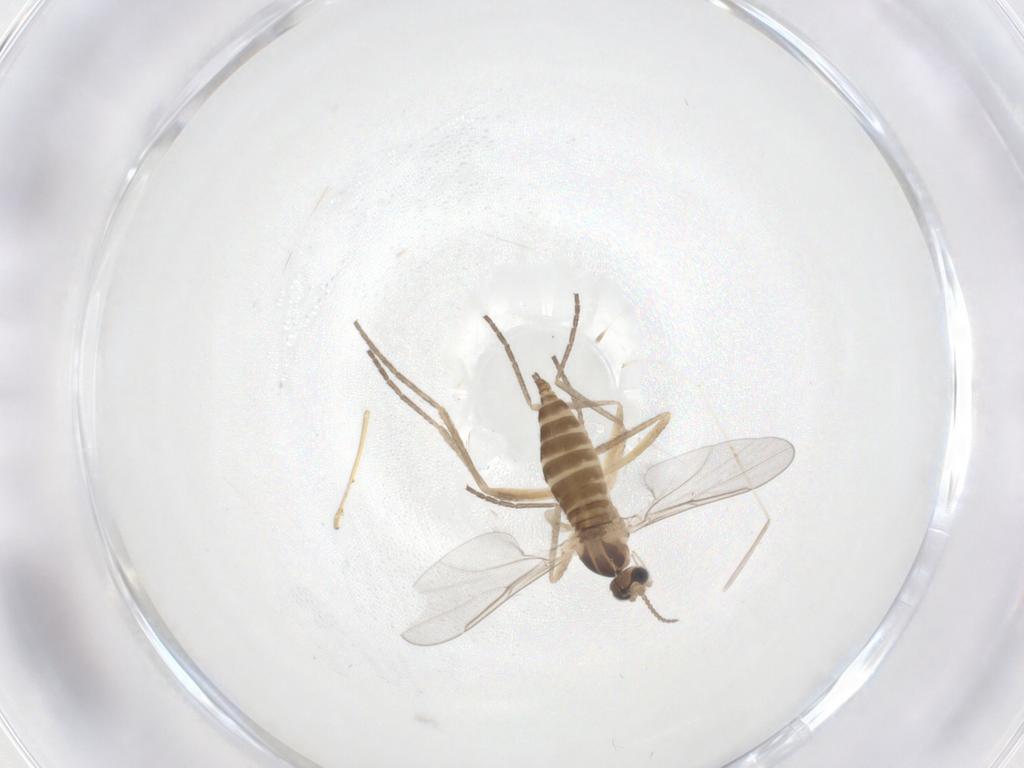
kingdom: Animalia
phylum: Arthropoda
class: Insecta
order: Diptera
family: Cecidomyiidae
